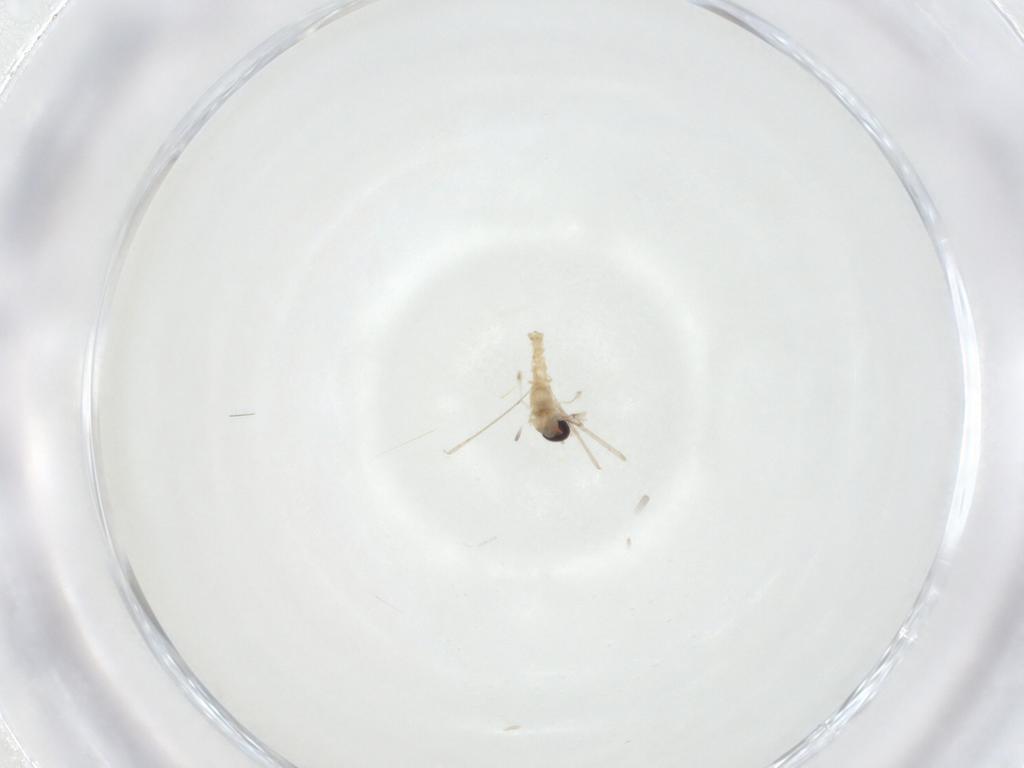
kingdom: Animalia
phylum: Arthropoda
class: Insecta
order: Diptera
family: Cecidomyiidae
